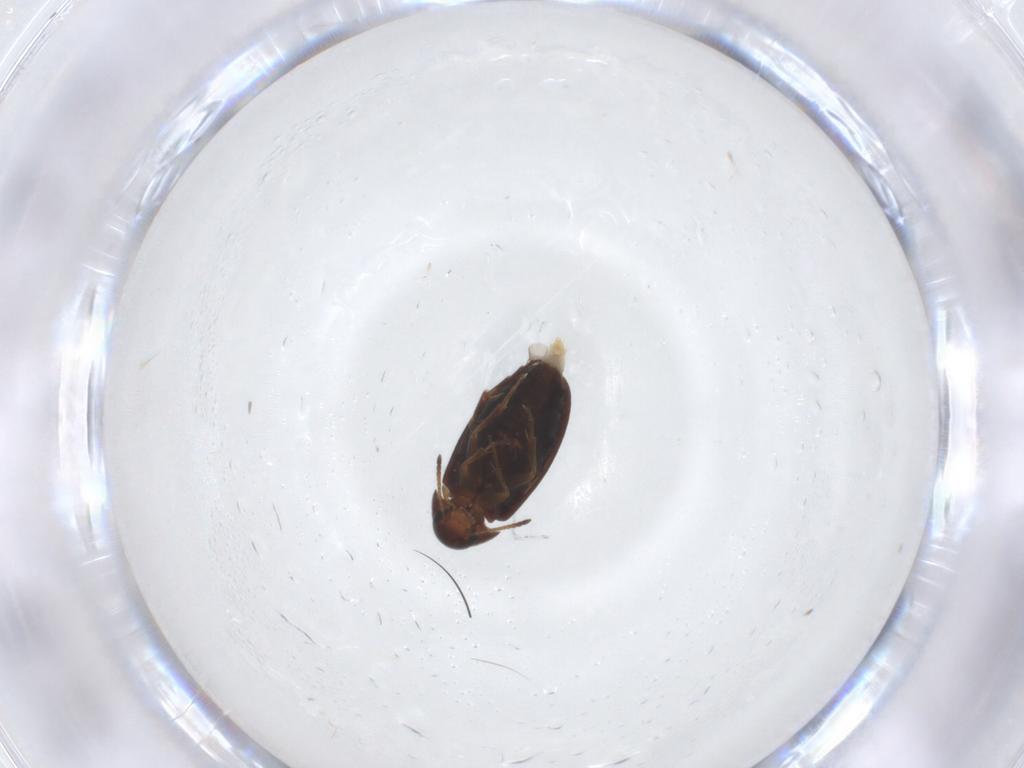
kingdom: Animalia
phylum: Arthropoda
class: Insecta
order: Coleoptera
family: Scraptiidae
